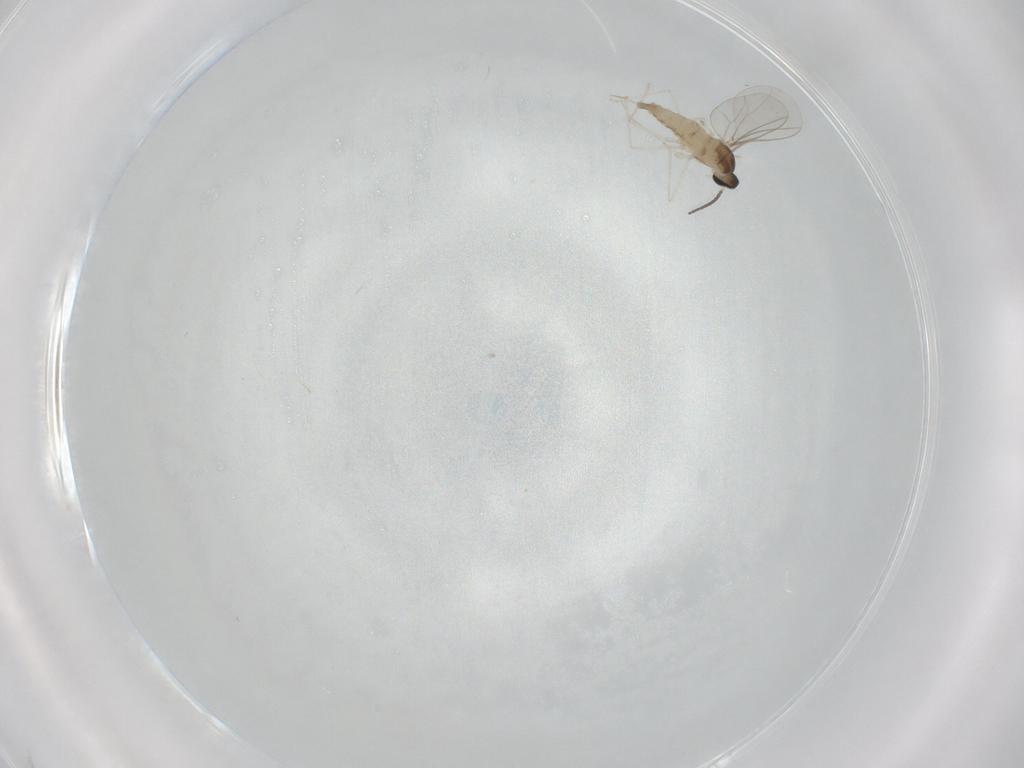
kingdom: Animalia
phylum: Arthropoda
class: Insecta
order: Diptera
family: Cecidomyiidae
